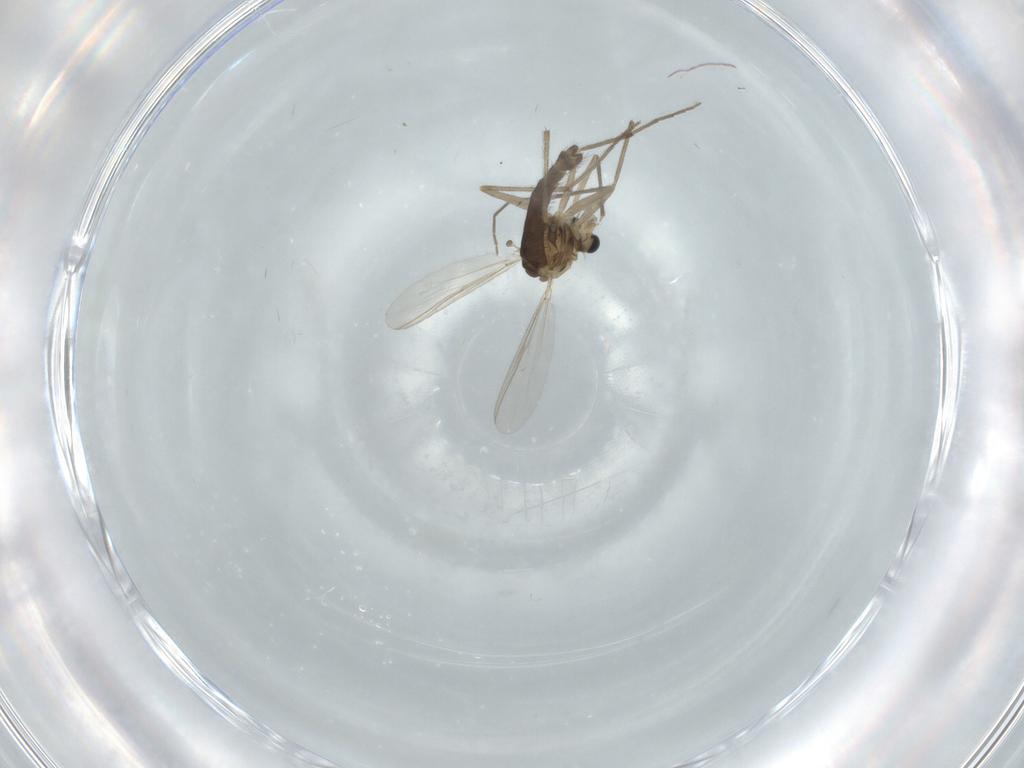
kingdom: Animalia
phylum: Arthropoda
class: Insecta
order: Diptera
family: Chironomidae
